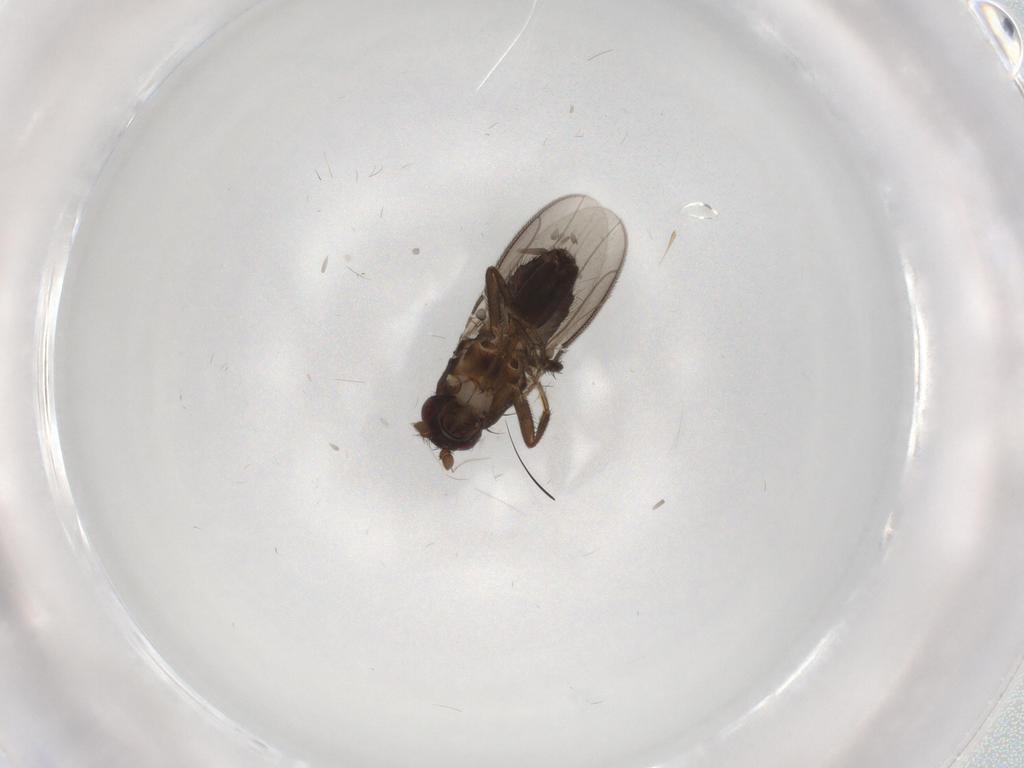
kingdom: Animalia
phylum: Arthropoda
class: Insecta
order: Diptera
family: Sphaeroceridae
